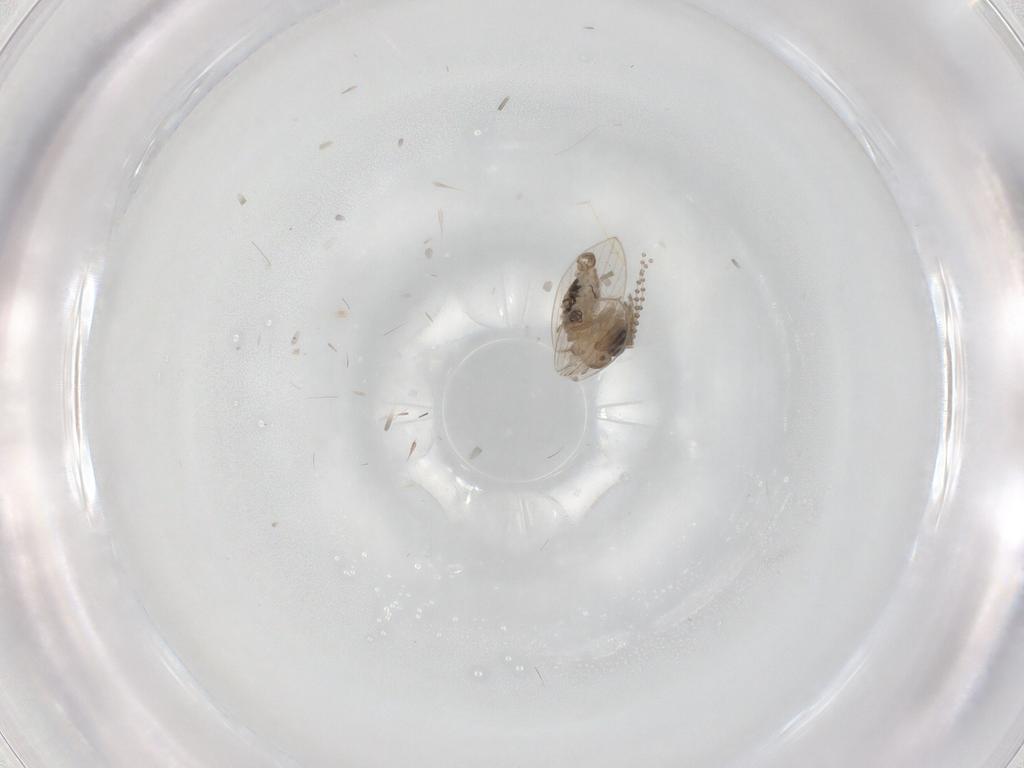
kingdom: Animalia
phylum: Arthropoda
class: Insecta
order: Diptera
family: Psychodidae
